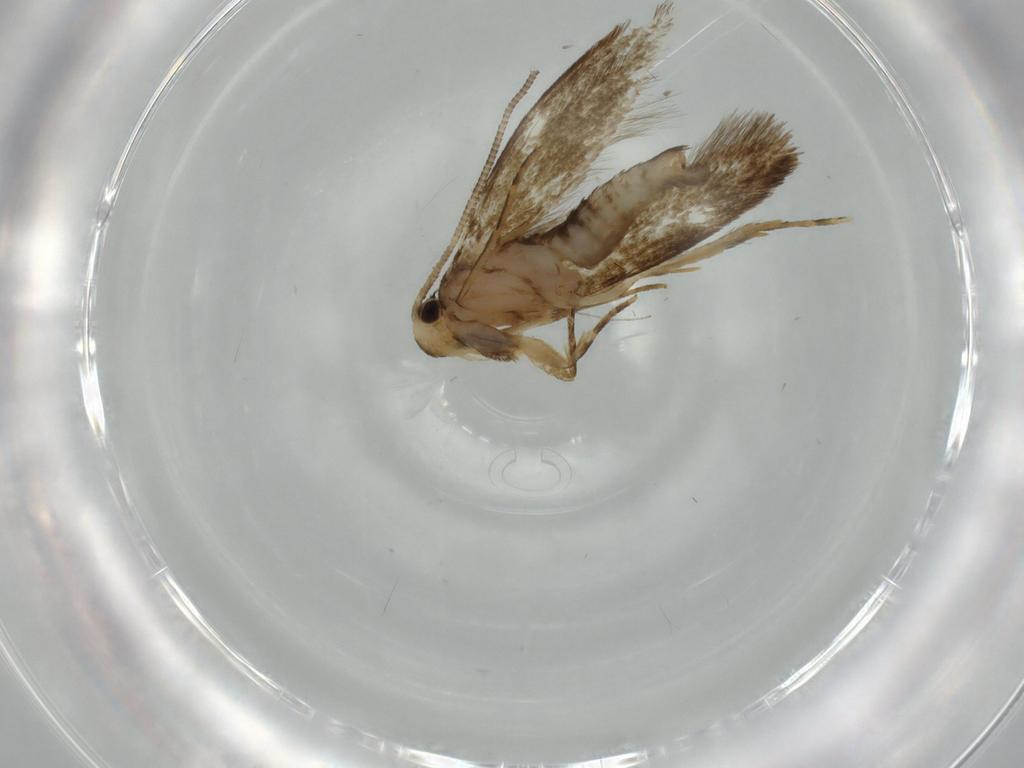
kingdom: Animalia
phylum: Arthropoda
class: Insecta
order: Lepidoptera
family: Tineidae
